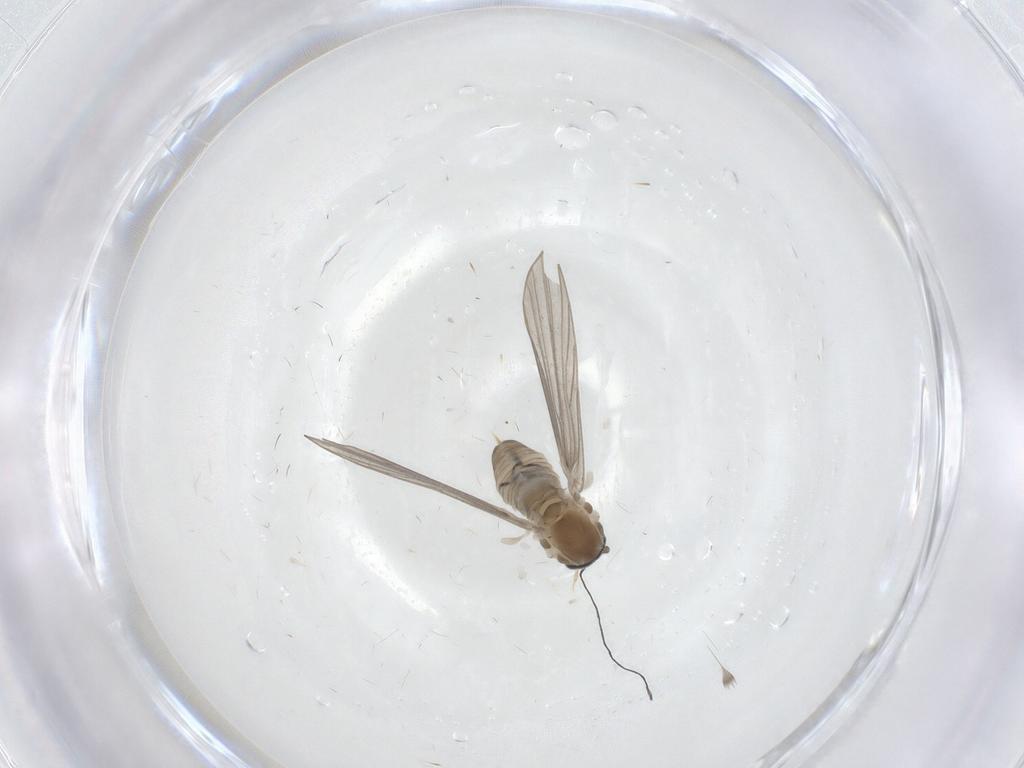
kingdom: Animalia
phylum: Arthropoda
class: Insecta
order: Diptera
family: Psychodidae
